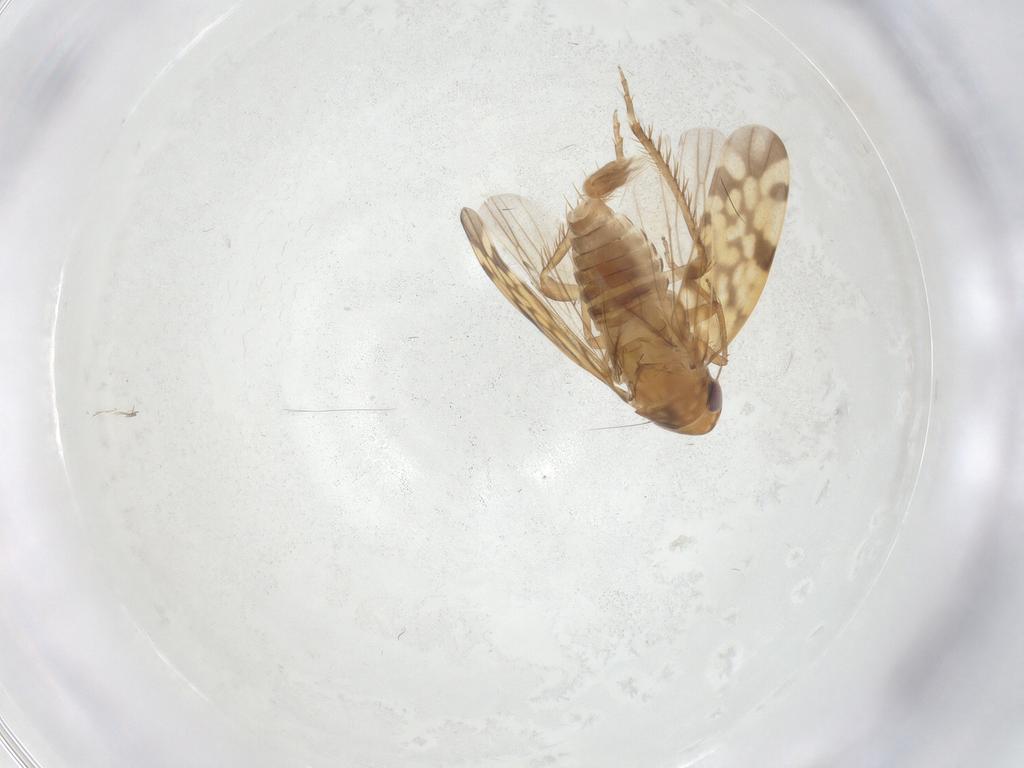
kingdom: Animalia
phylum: Arthropoda
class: Insecta
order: Hemiptera
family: Cicadellidae
